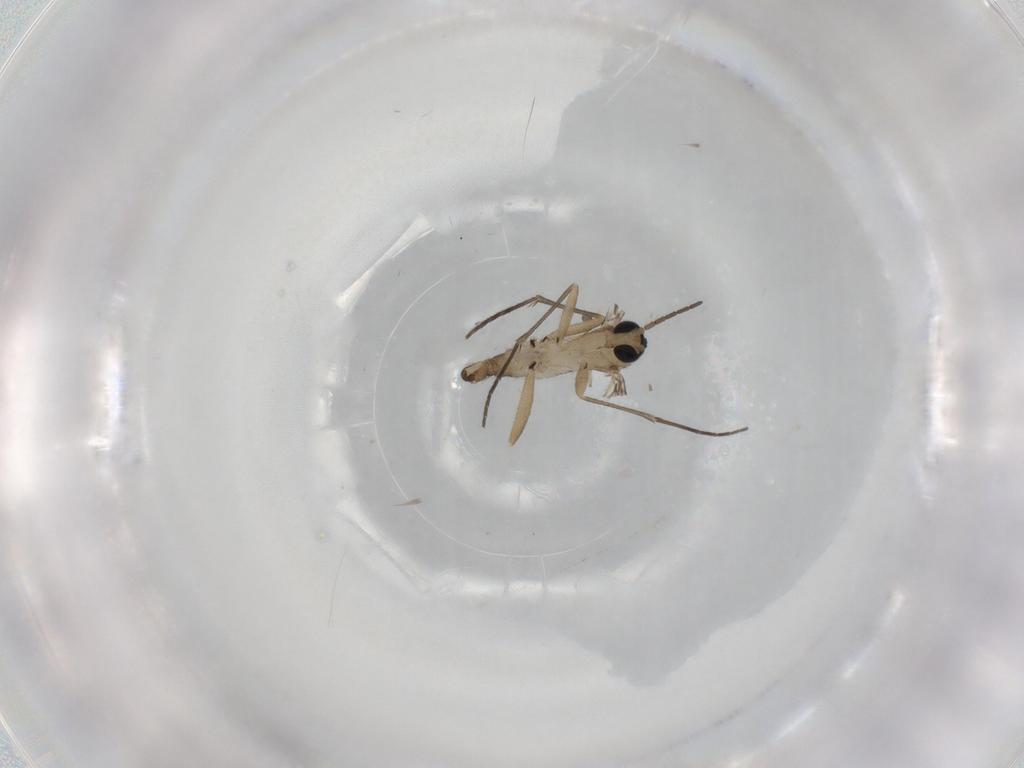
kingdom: Animalia
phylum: Arthropoda
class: Insecta
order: Diptera
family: Sciaridae
